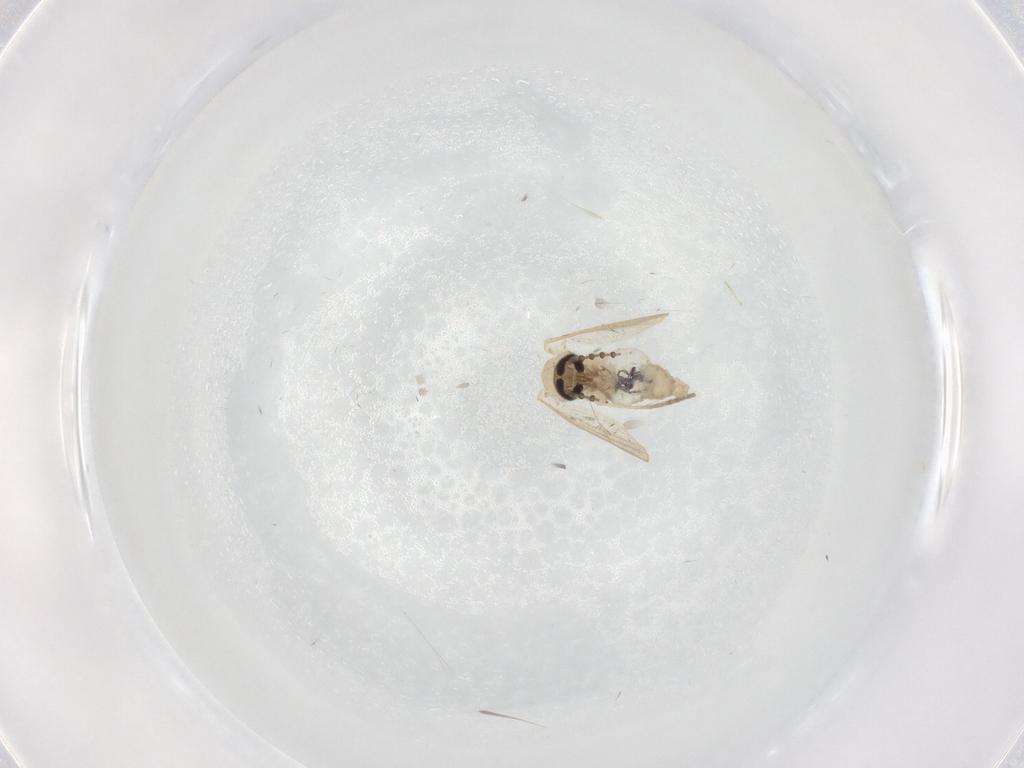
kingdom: Animalia
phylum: Arthropoda
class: Insecta
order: Diptera
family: Psychodidae
